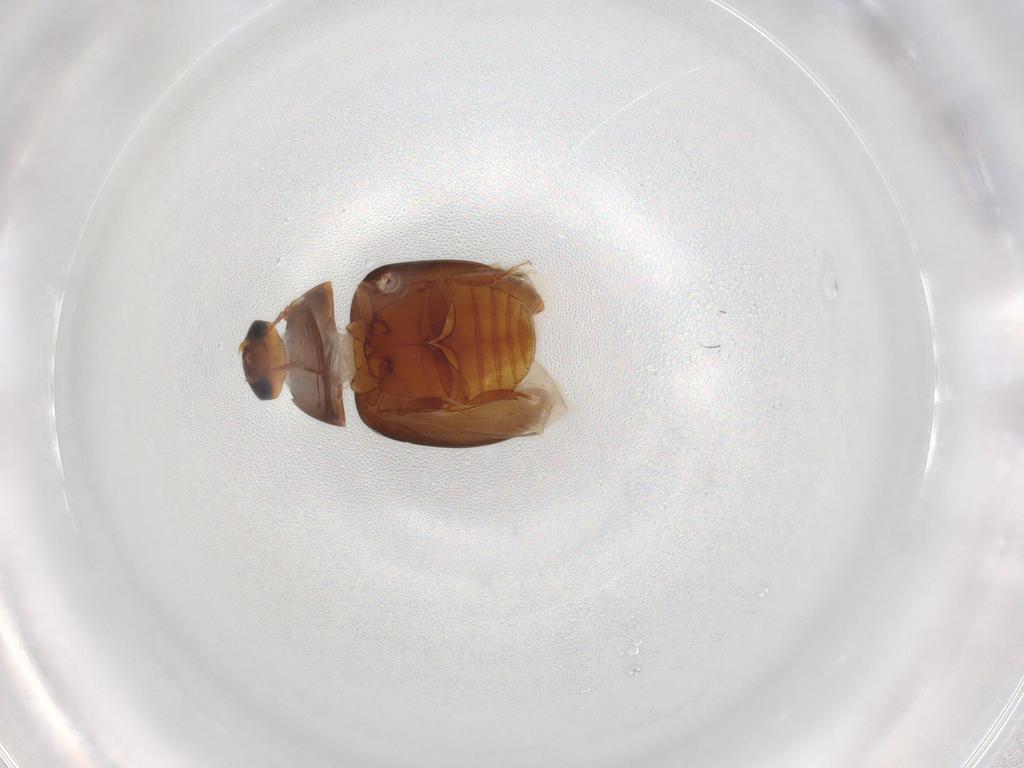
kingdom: Animalia
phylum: Arthropoda
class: Insecta
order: Coleoptera
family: Phalacridae
